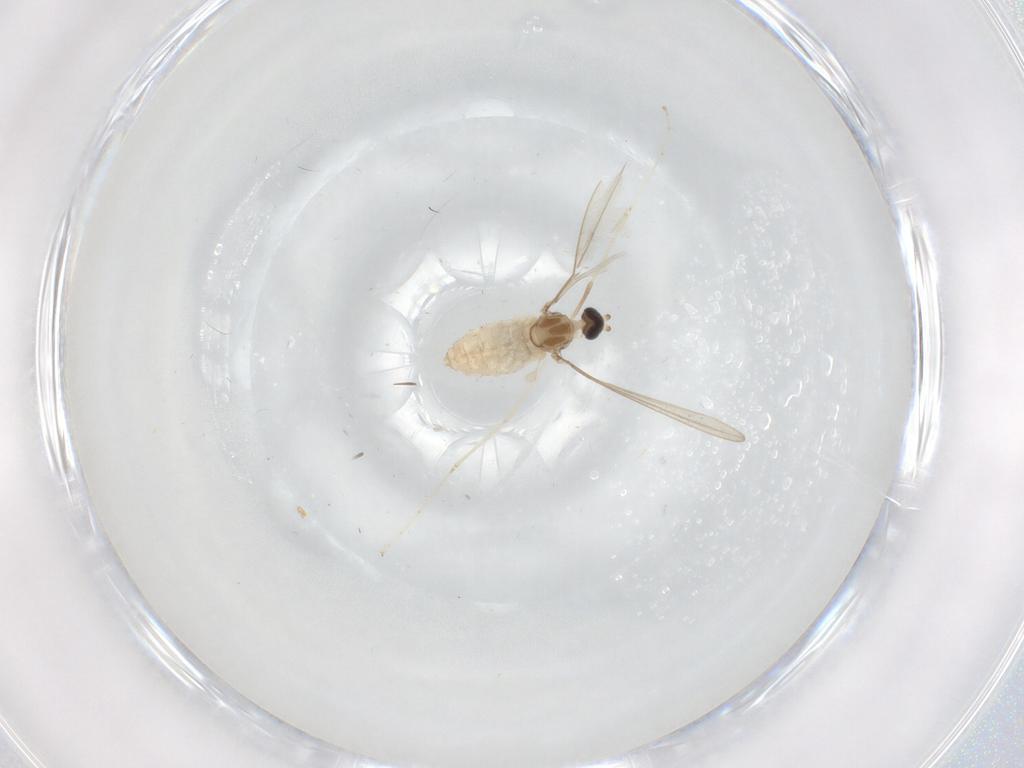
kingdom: Animalia
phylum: Arthropoda
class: Insecta
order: Diptera
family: Cecidomyiidae
